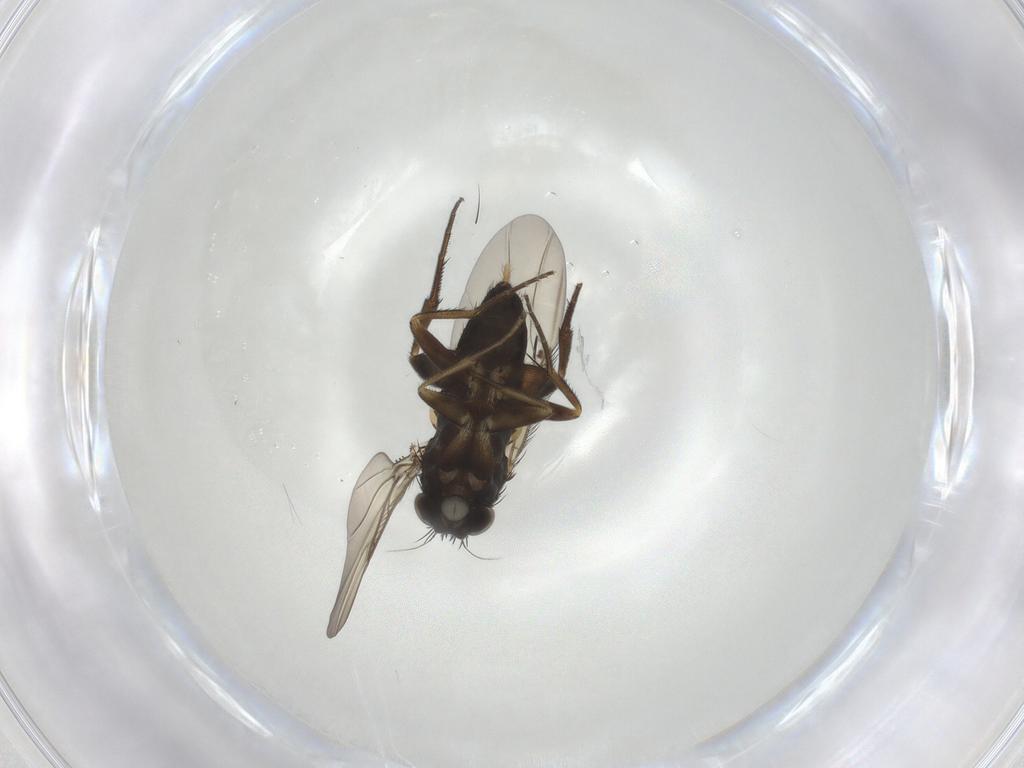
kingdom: Animalia
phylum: Arthropoda
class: Insecta
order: Diptera
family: Phoridae
